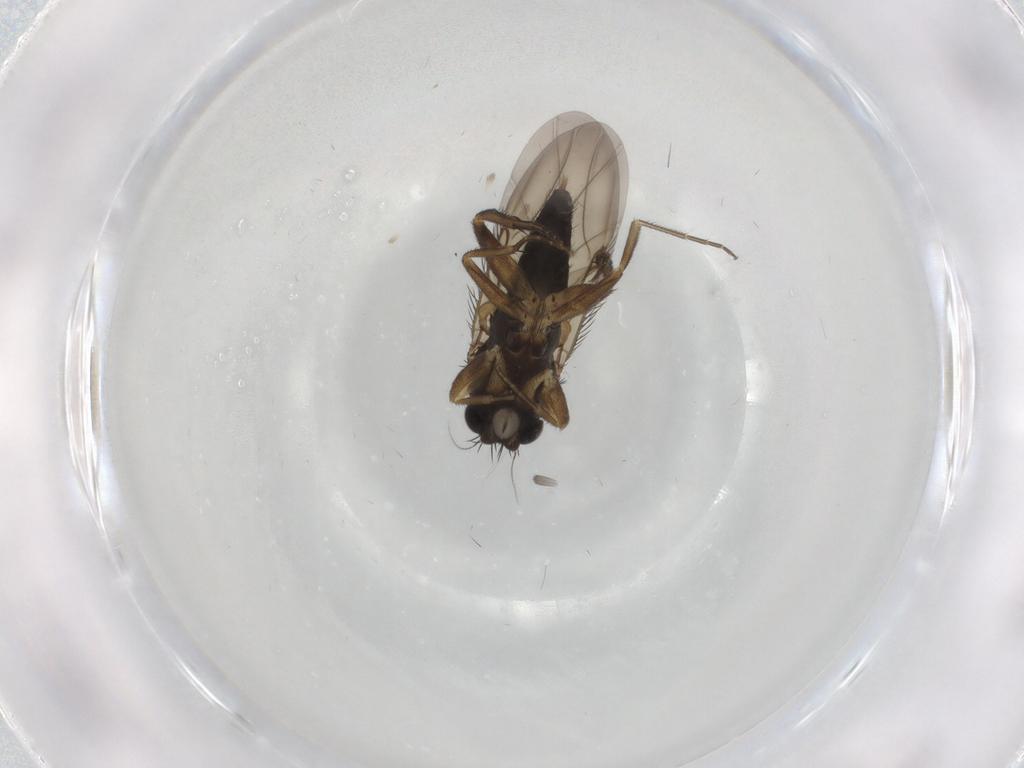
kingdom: Animalia
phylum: Arthropoda
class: Insecta
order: Diptera
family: Phoridae
